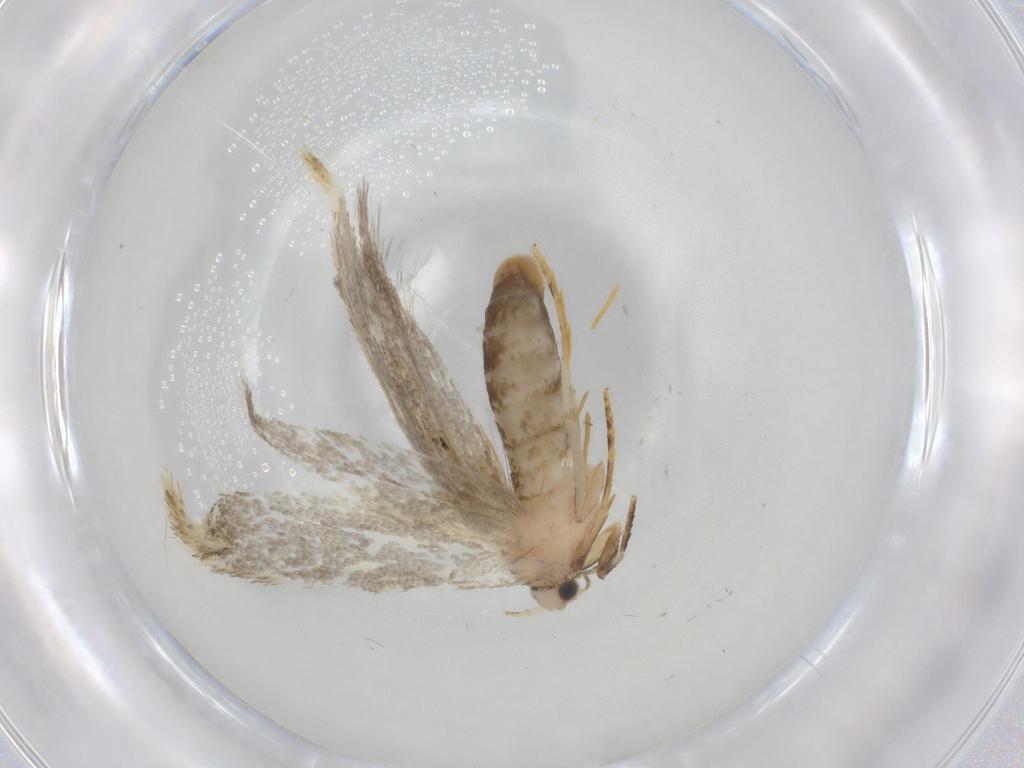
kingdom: Animalia
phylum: Arthropoda
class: Insecta
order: Lepidoptera
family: Tineidae
